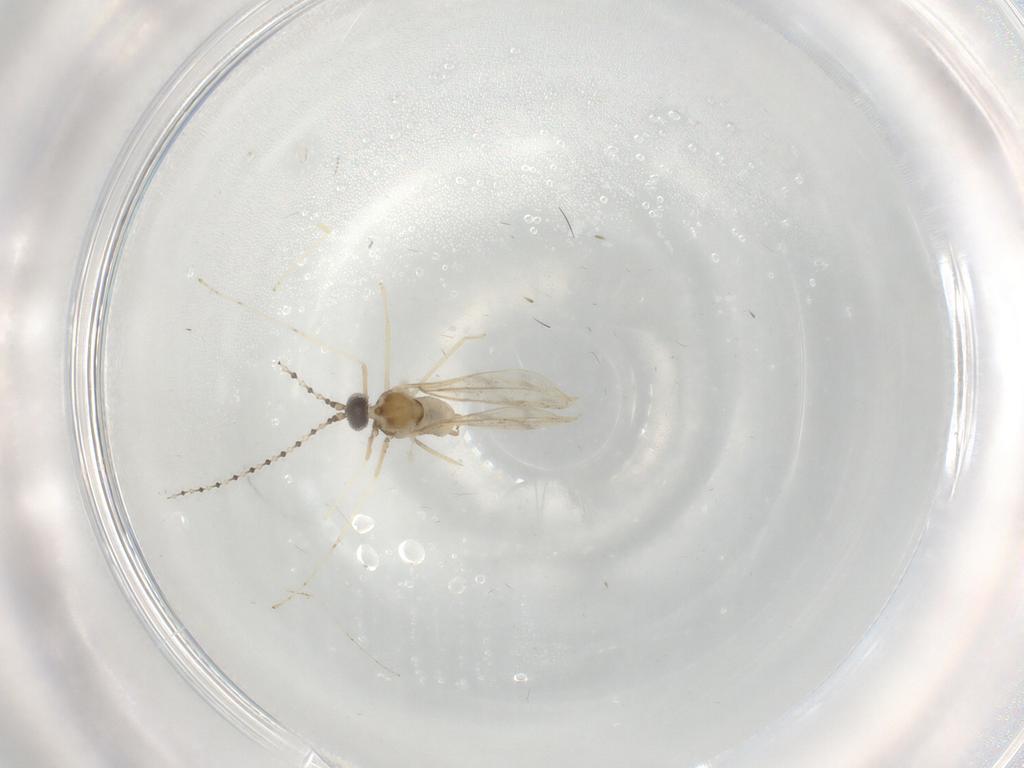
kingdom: Animalia
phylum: Arthropoda
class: Insecta
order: Diptera
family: Cecidomyiidae
